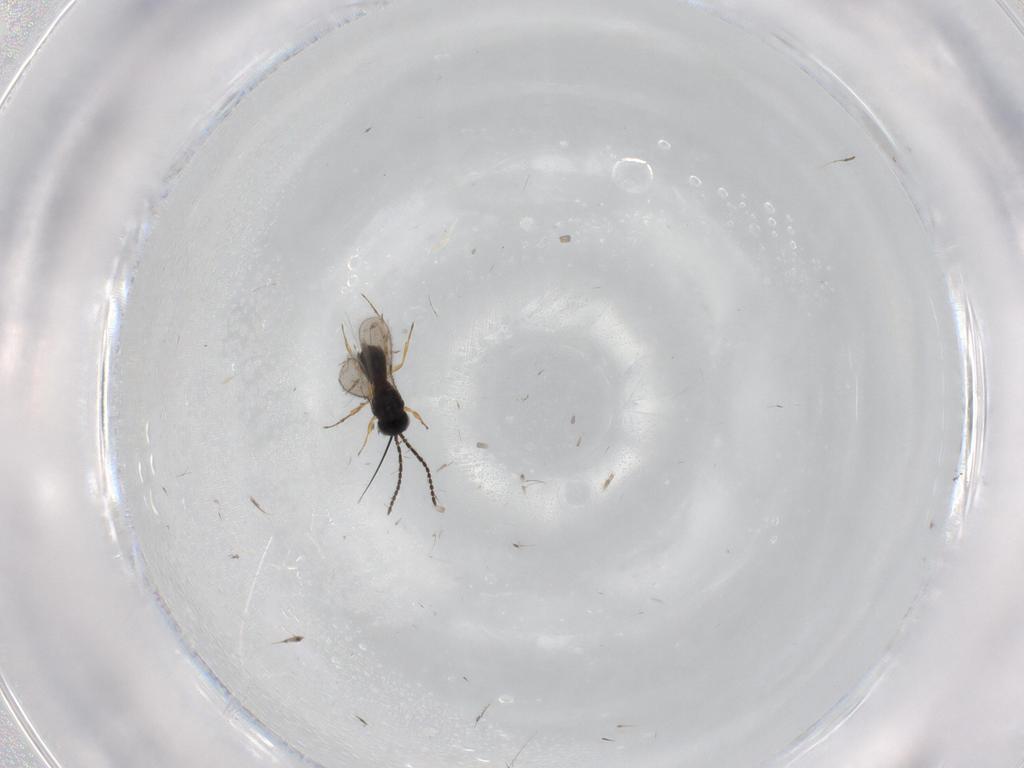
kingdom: Animalia
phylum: Arthropoda
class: Insecta
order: Hymenoptera
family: Scelionidae
